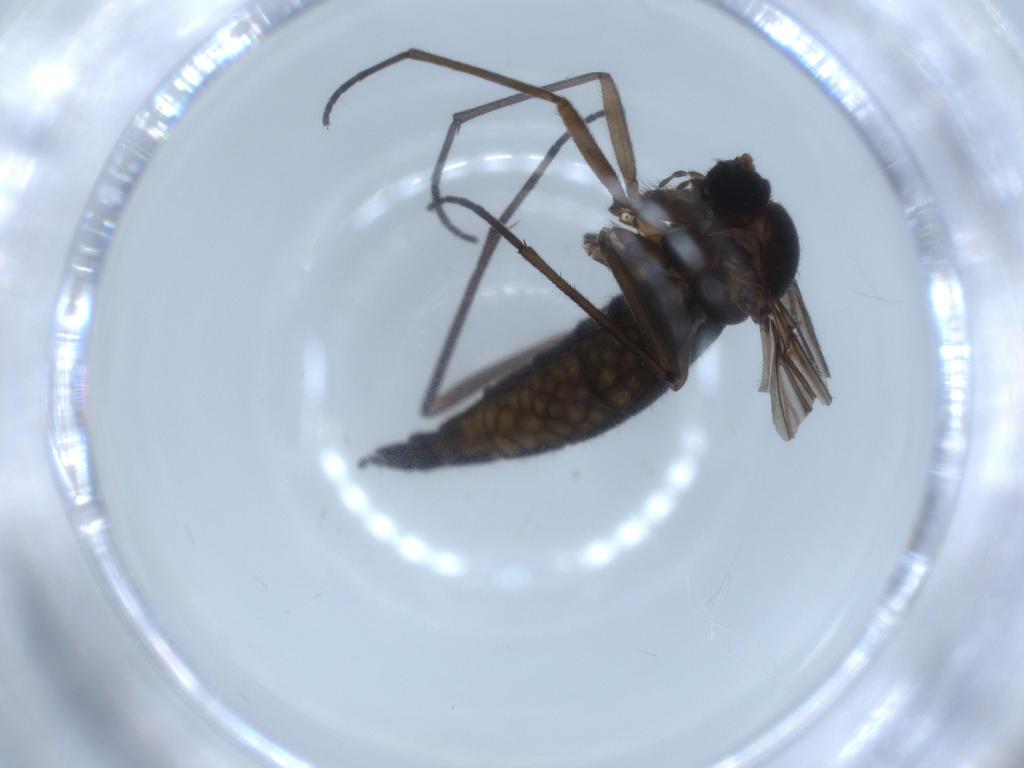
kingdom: Animalia
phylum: Arthropoda
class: Insecta
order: Diptera
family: Sciaridae
